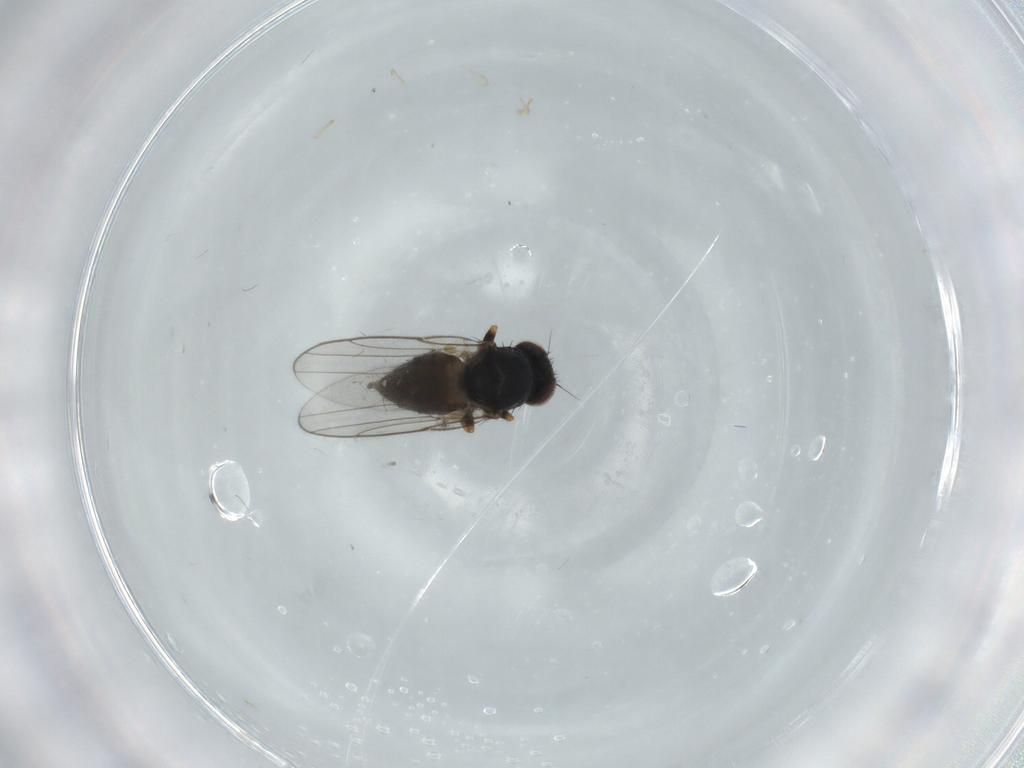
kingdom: Animalia
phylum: Arthropoda
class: Insecta
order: Diptera
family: Chloropidae
